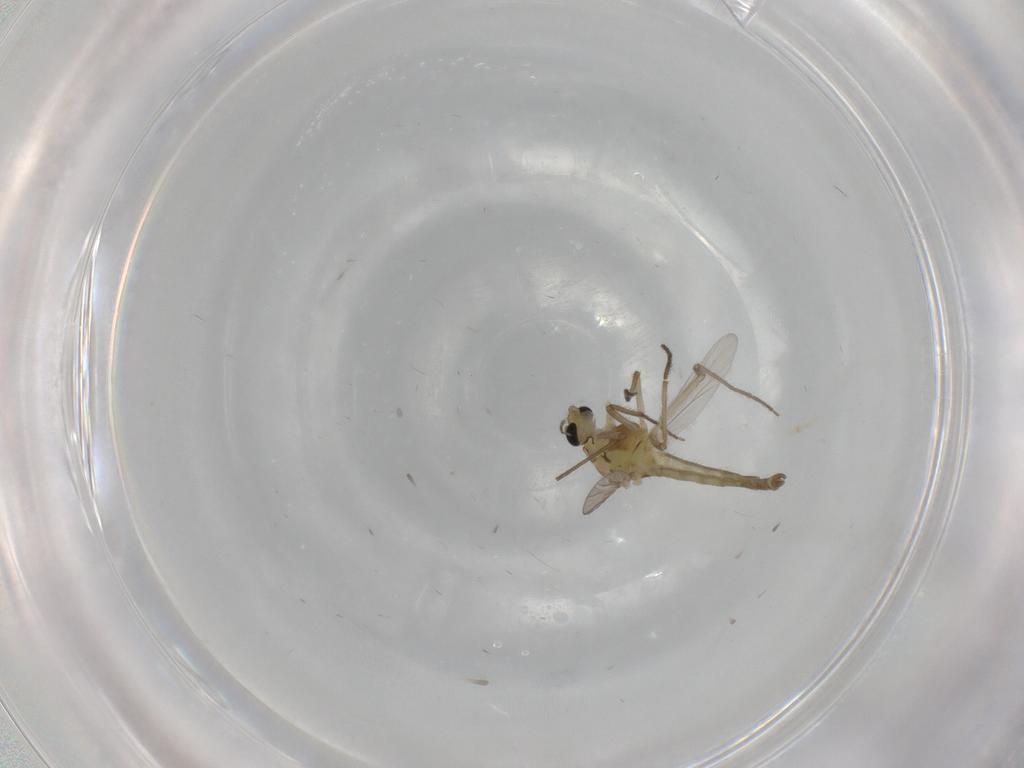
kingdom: Animalia
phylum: Arthropoda
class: Insecta
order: Diptera
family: Chironomidae
